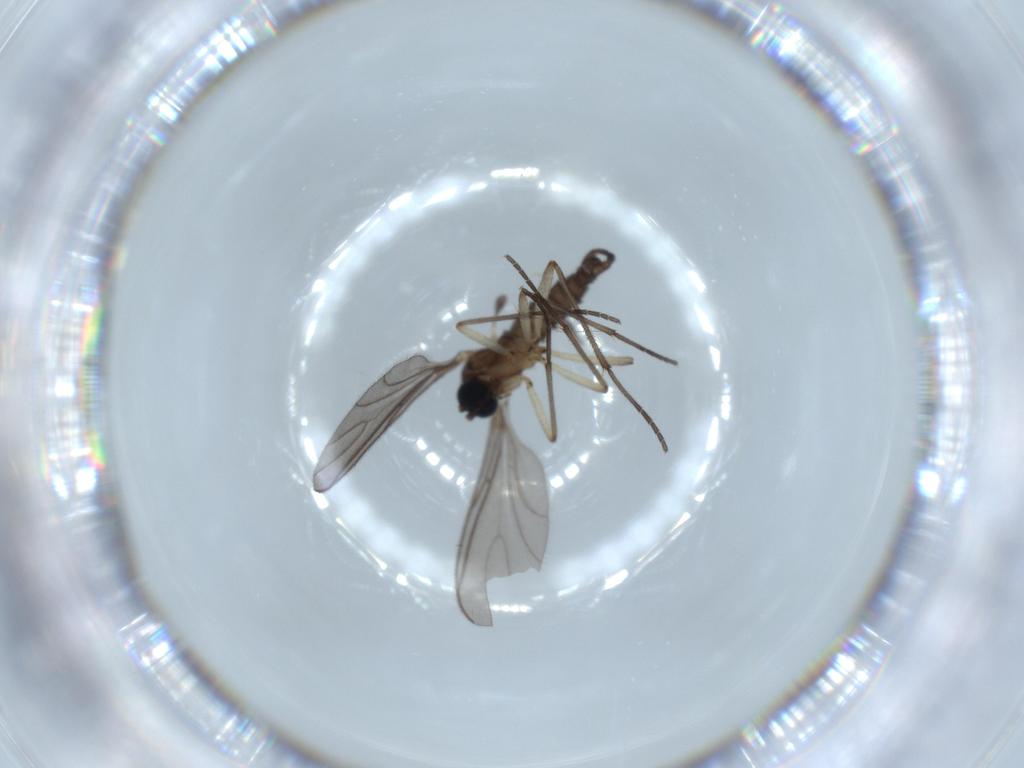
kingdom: Animalia
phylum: Arthropoda
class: Insecta
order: Diptera
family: Sciaridae
